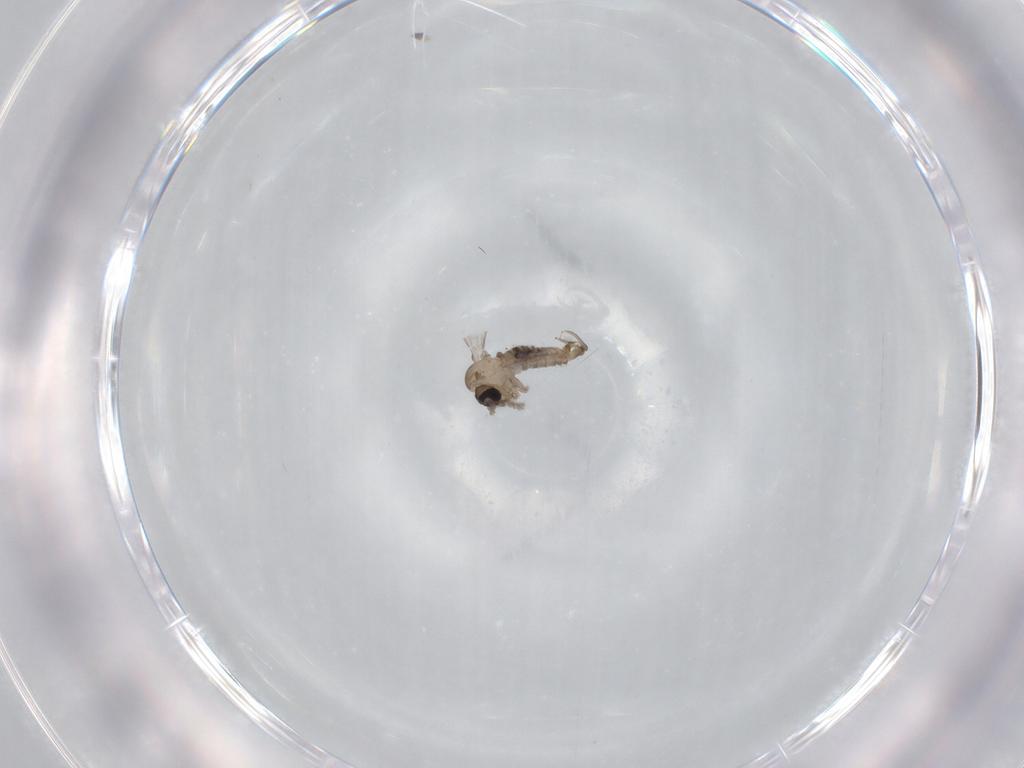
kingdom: Animalia
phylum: Arthropoda
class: Insecta
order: Diptera
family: Psychodidae
